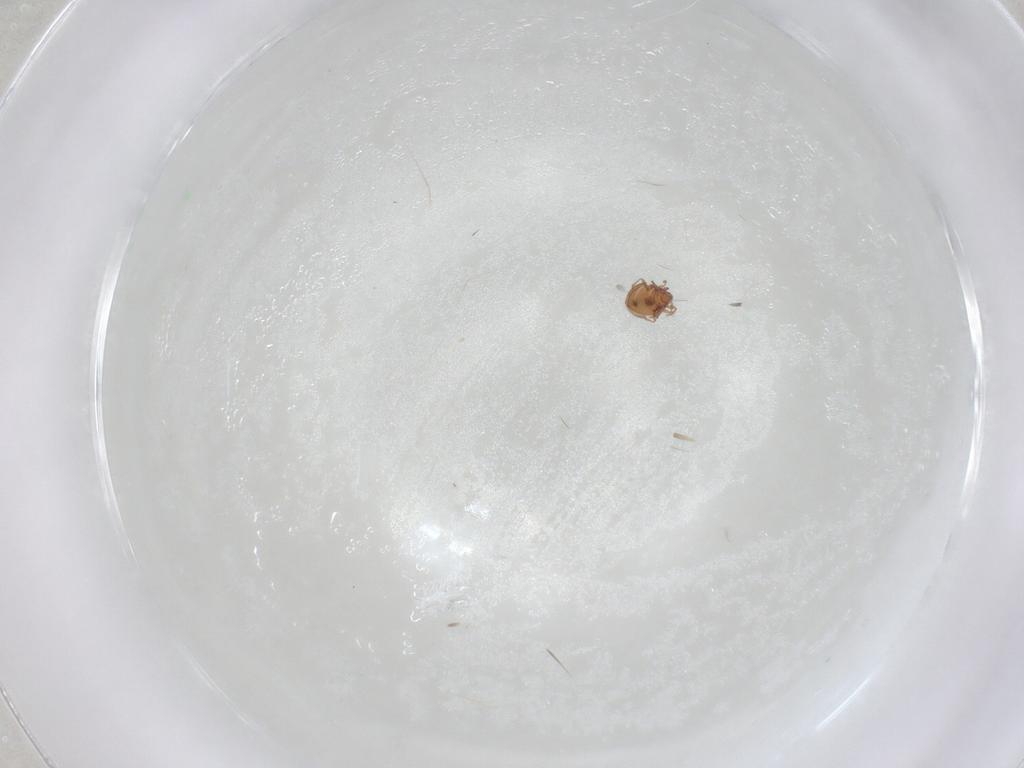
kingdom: Animalia
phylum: Arthropoda
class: Arachnida
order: Sarcoptiformes
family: Scheloribatidae
